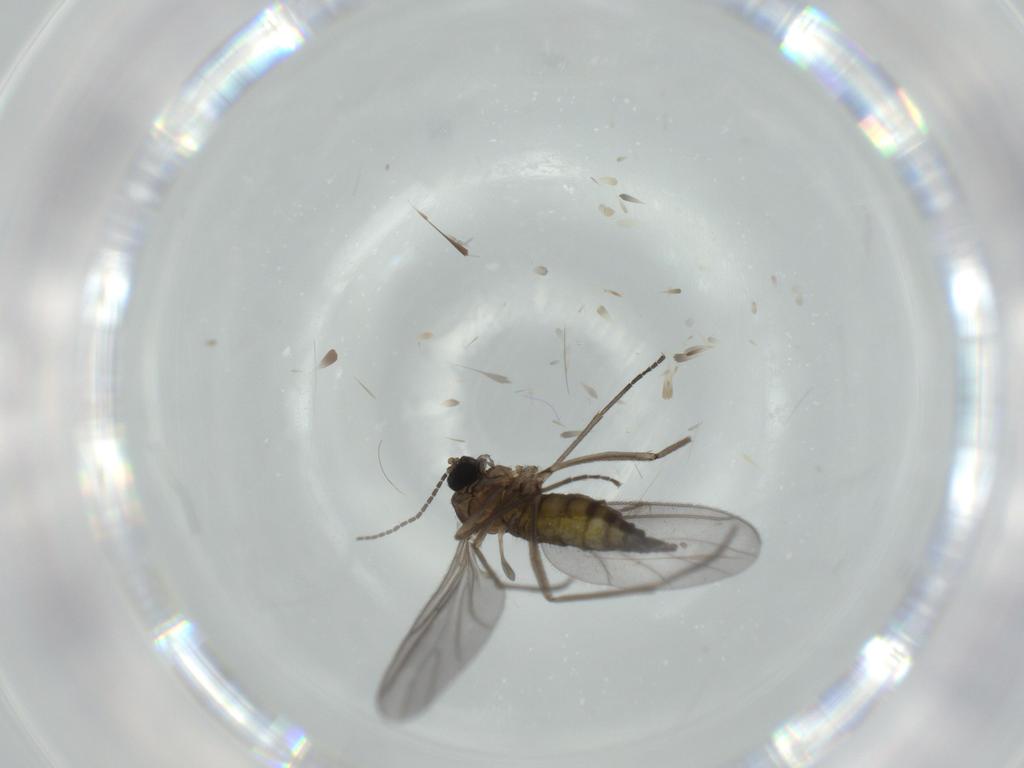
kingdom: Animalia
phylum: Arthropoda
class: Insecta
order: Diptera
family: Sciaridae
